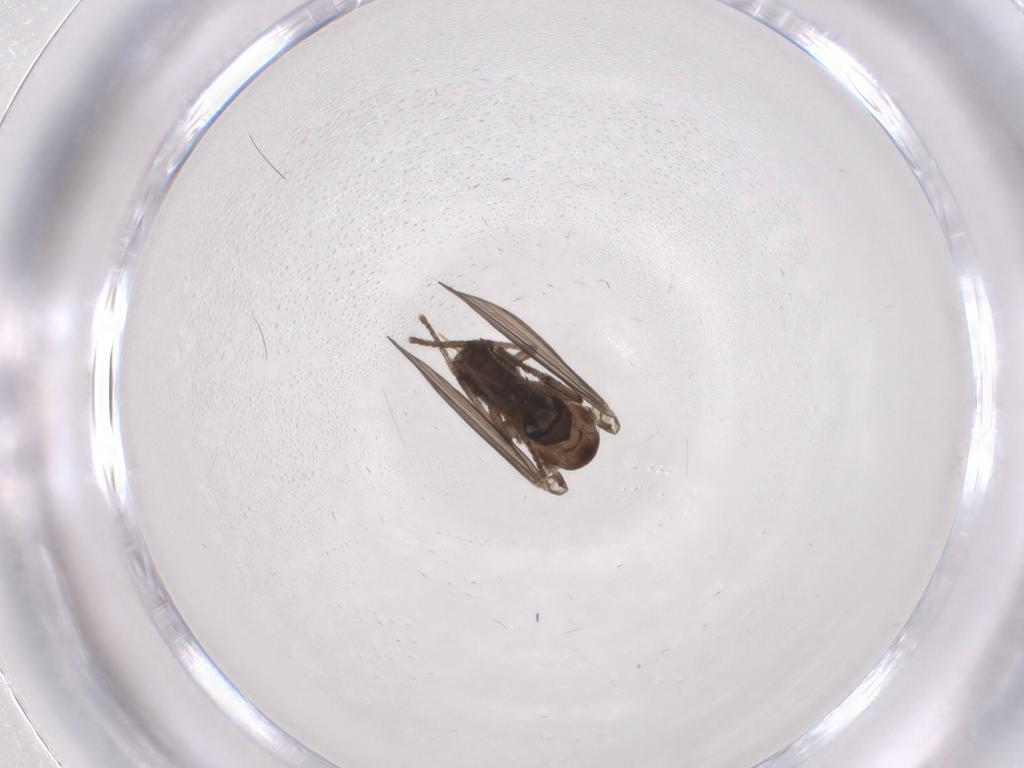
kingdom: Animalia
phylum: Arthropoda
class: Insecta
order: Diptera
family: Psychodidae
